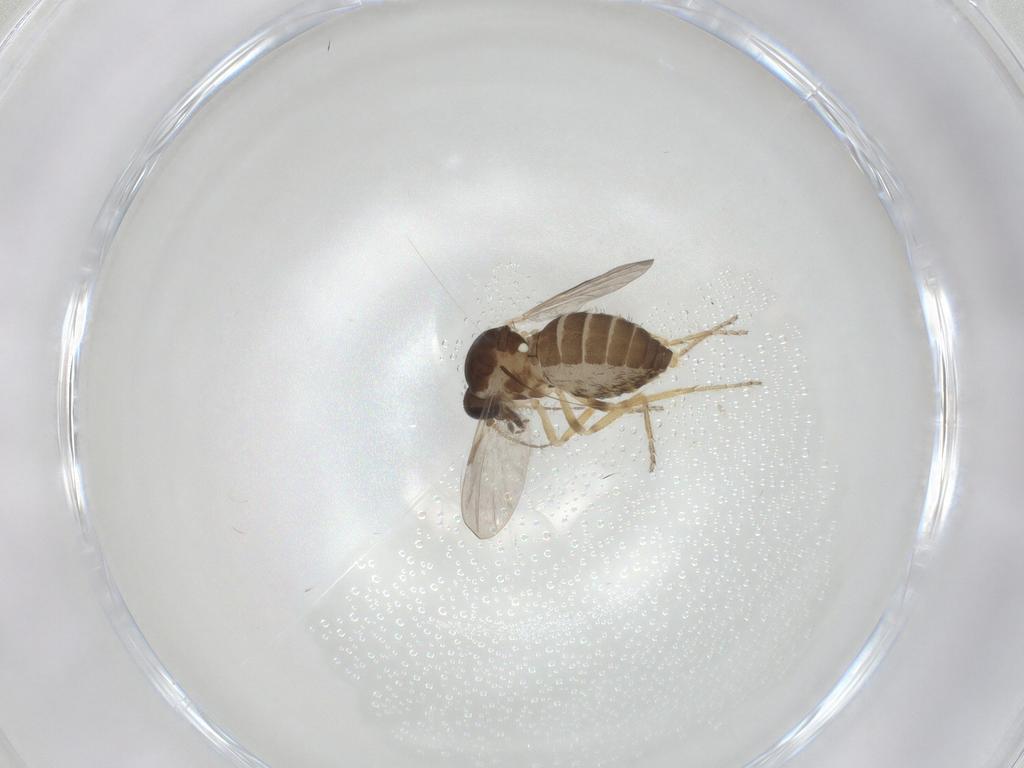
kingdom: Animalia
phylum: Arthropoda
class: Insecta
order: Diptera
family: Ceratopogonidae
